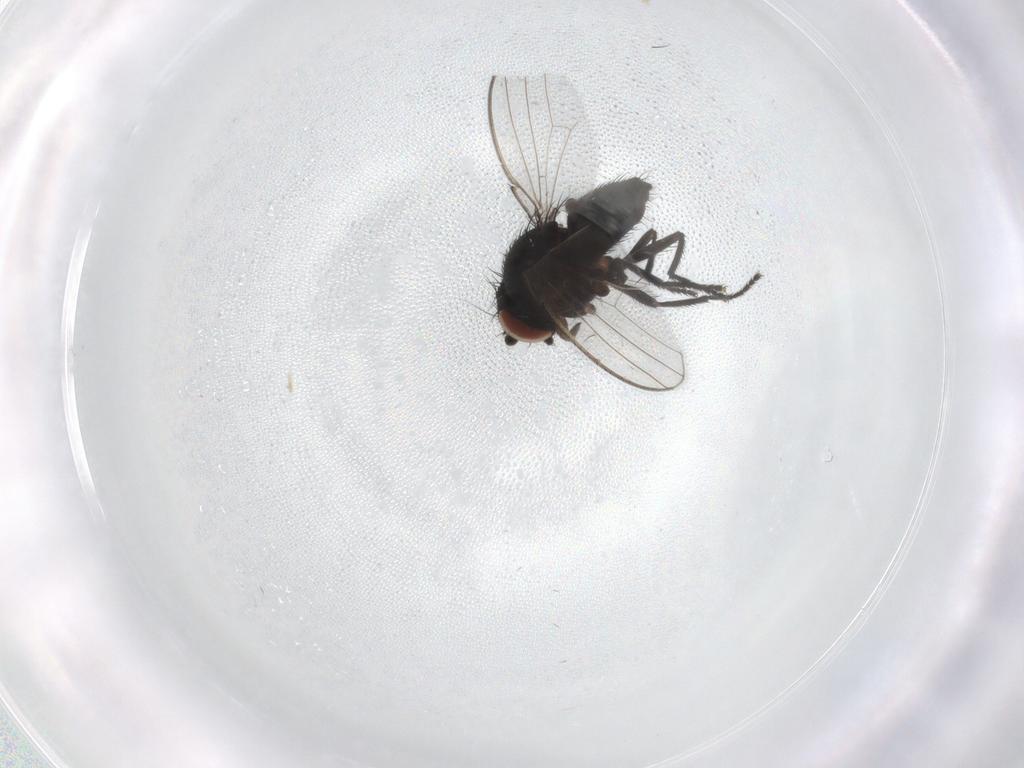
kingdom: Animalia
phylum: Arthropoda
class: Insecta
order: Diptera
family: Milichiidae
